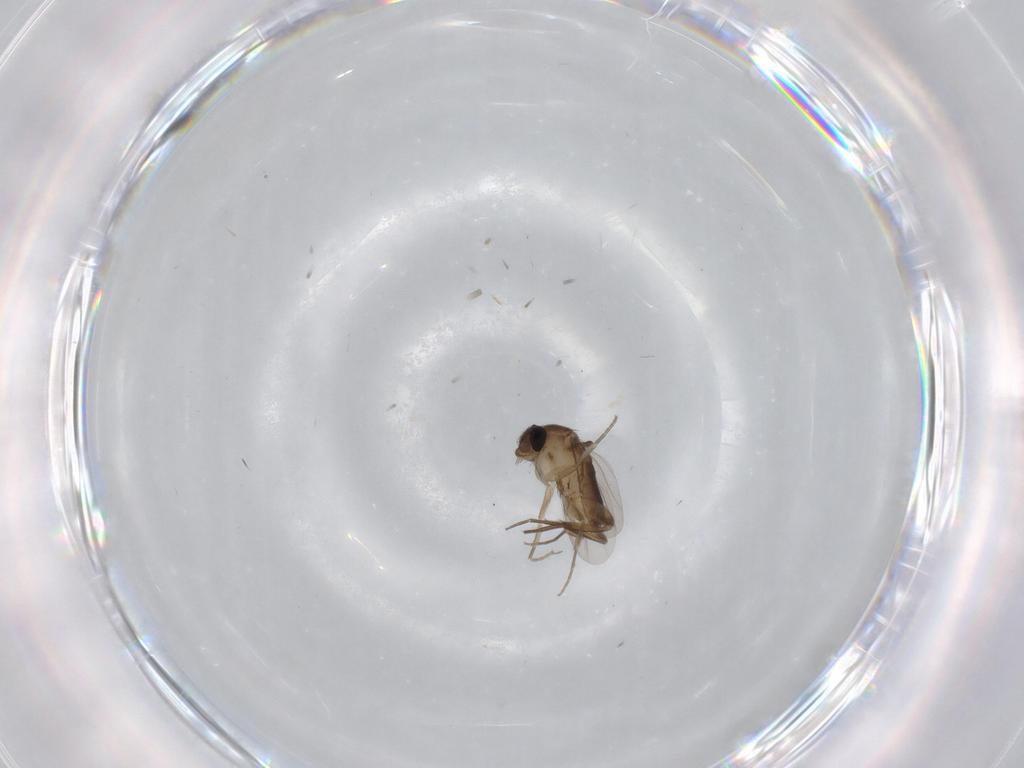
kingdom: Animalia
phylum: Arthropoda
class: Insecta
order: Diptera
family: Phoridae
